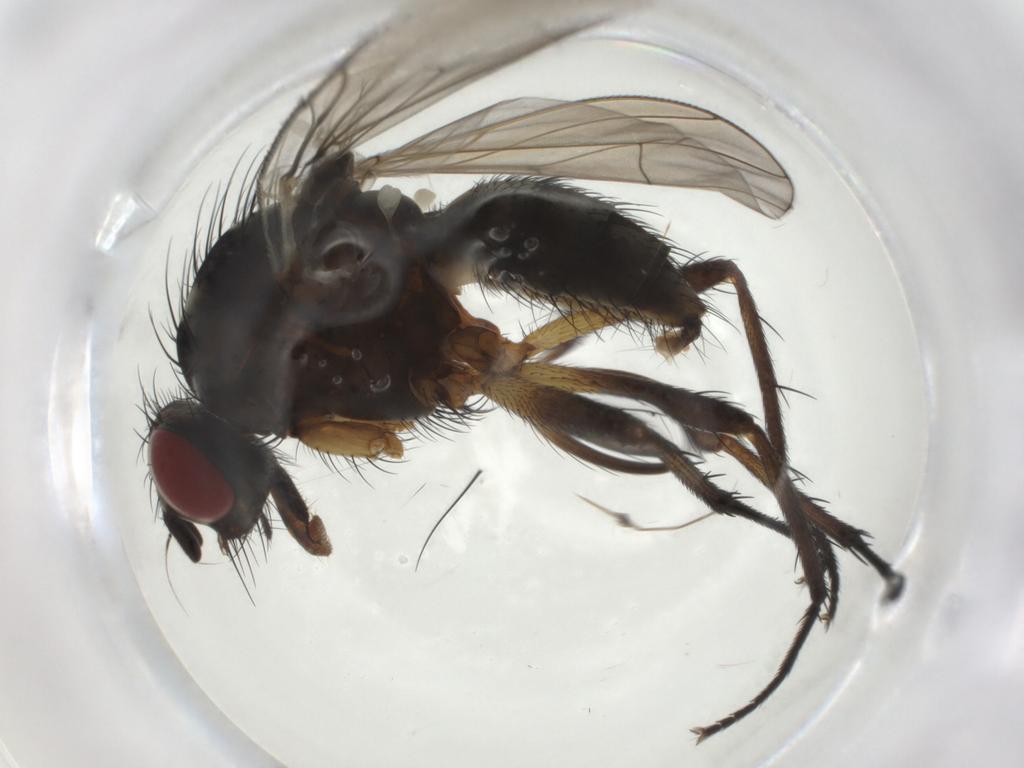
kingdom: Animalia
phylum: Arthropoda
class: Insecta
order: Diptera
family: Anthomyiidae
